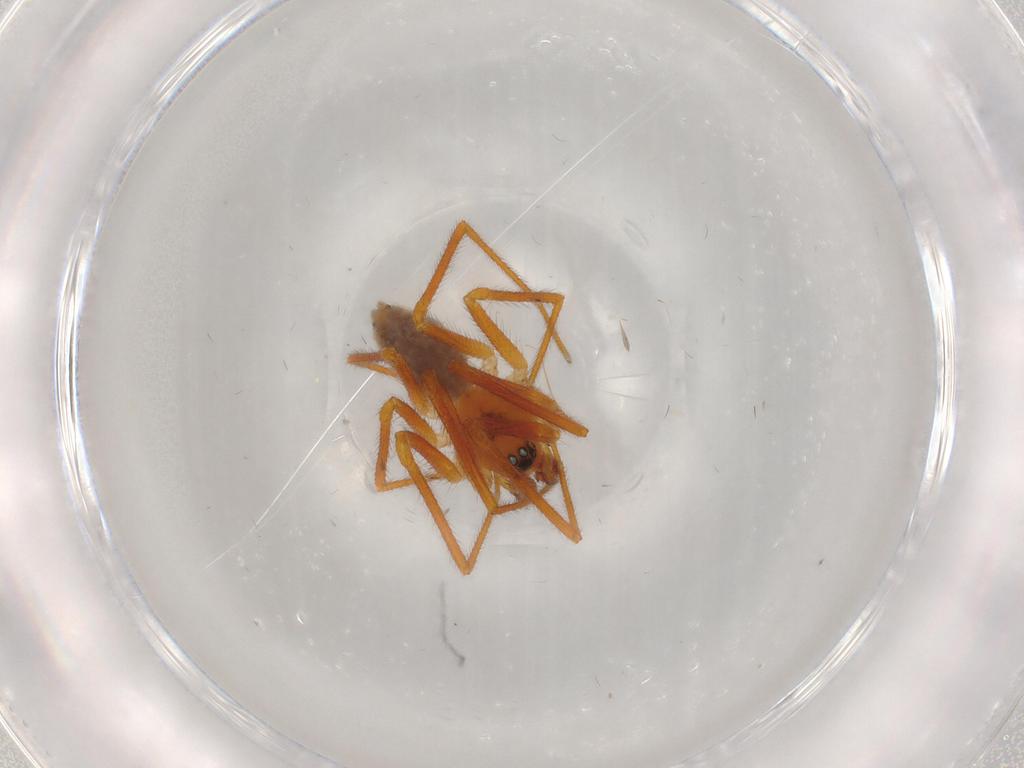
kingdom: Animalia
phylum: Arthropoda
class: Arachnida
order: Araneae
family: Linyphiidae
